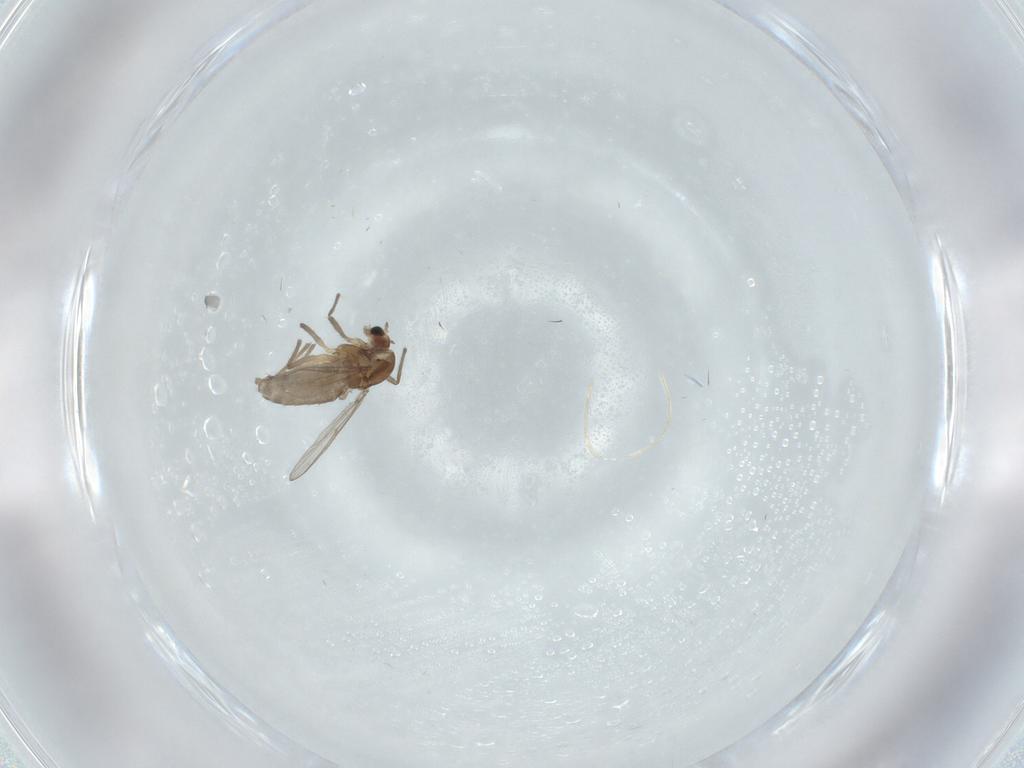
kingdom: Animalia
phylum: Arthropoda
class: Insecta
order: Diptera
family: Chironomidae
